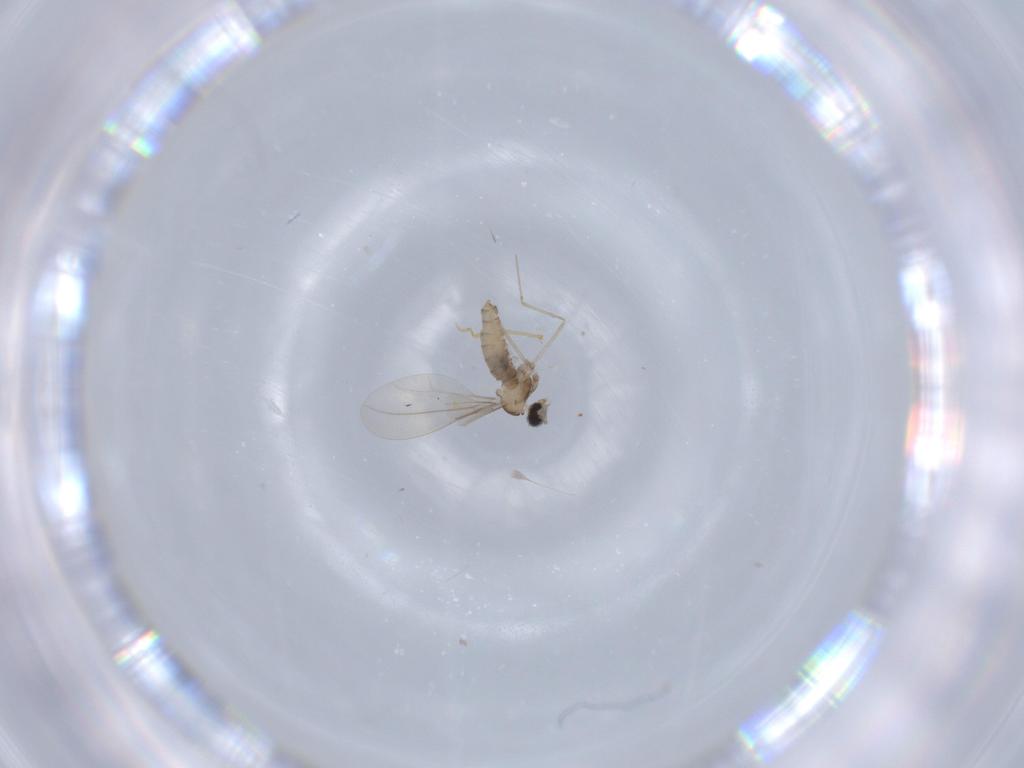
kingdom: Animalia
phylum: Arthropoda
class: Insecta
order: Diptera
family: Cecidomyiidae
